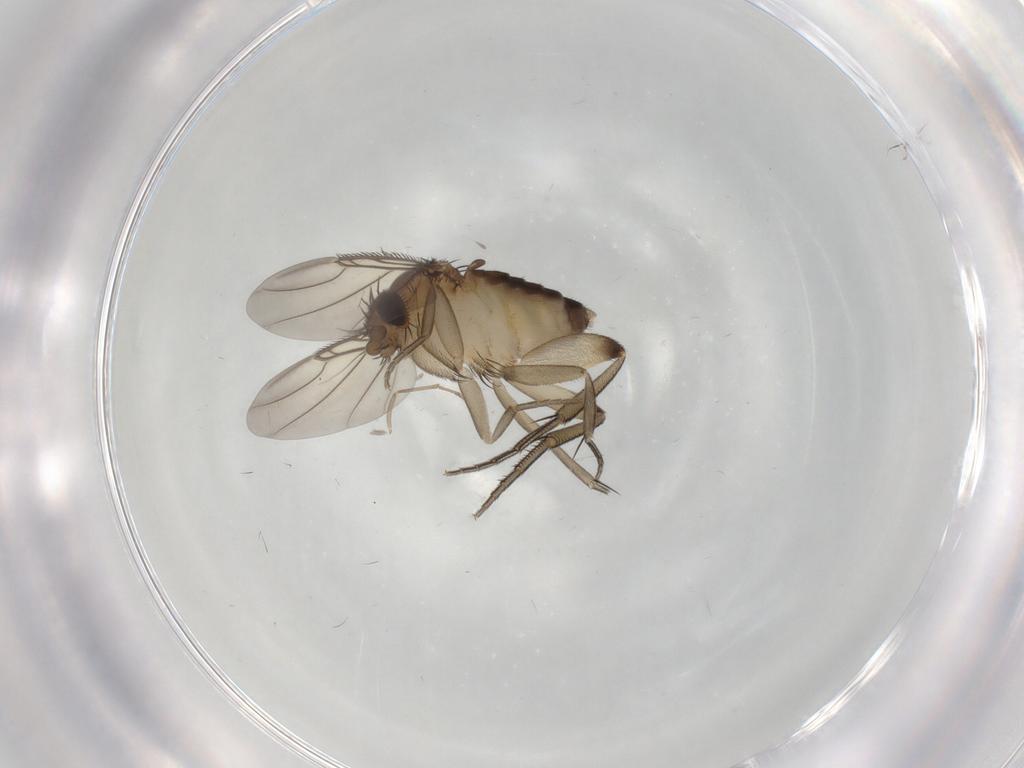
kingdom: Animalia
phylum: Arthropoda
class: Insecta
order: Diptera
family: Phoridae
